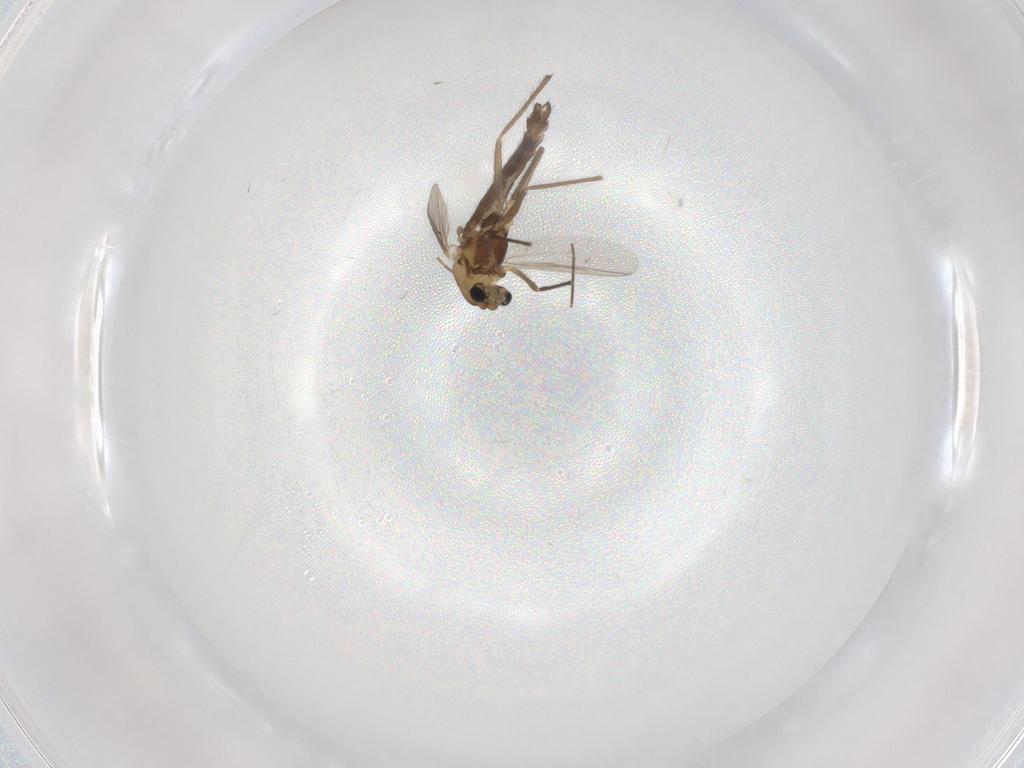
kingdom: Animalia
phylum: Arthropoda
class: Insecta
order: Diptera
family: Chironomidae
